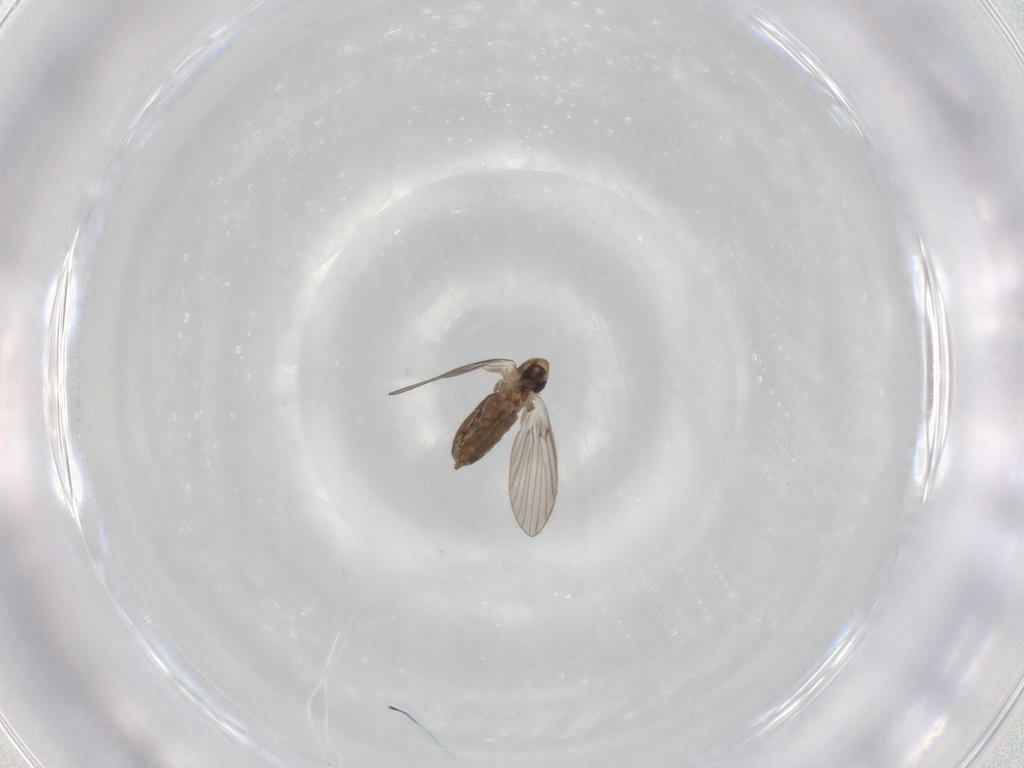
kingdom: Animalia
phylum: Arthropoda
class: Insecta
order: Diptera
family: Psychodidae
